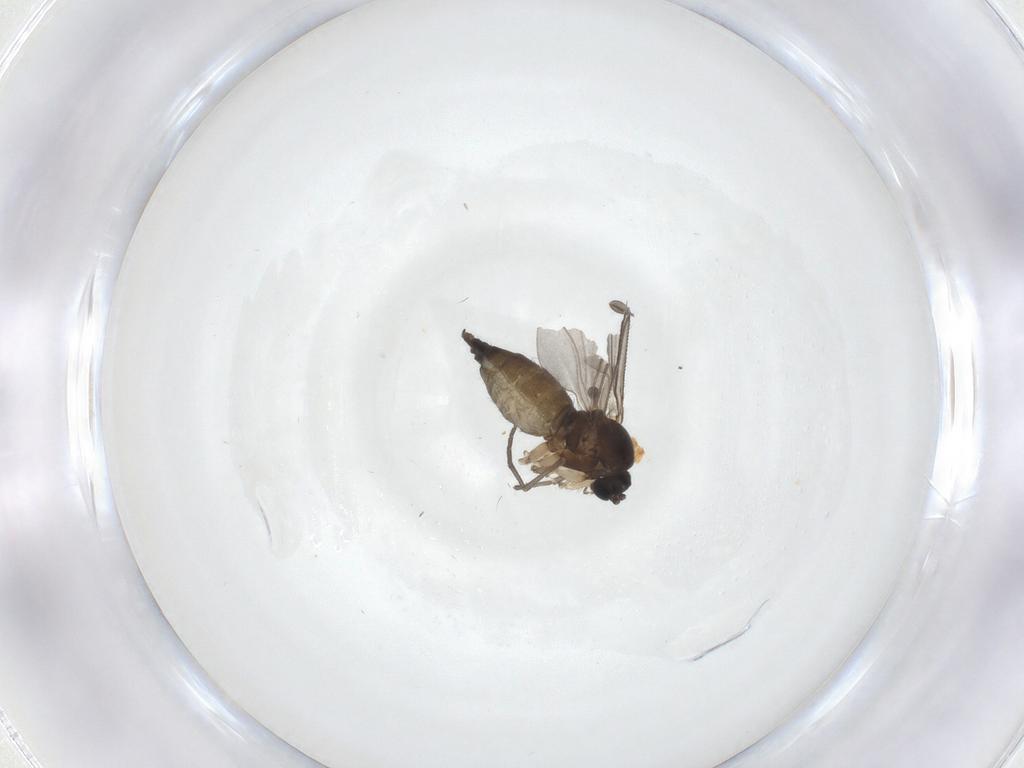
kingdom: Animalia
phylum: Arthropoda
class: Insecta
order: Diptera
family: Sciaridae
